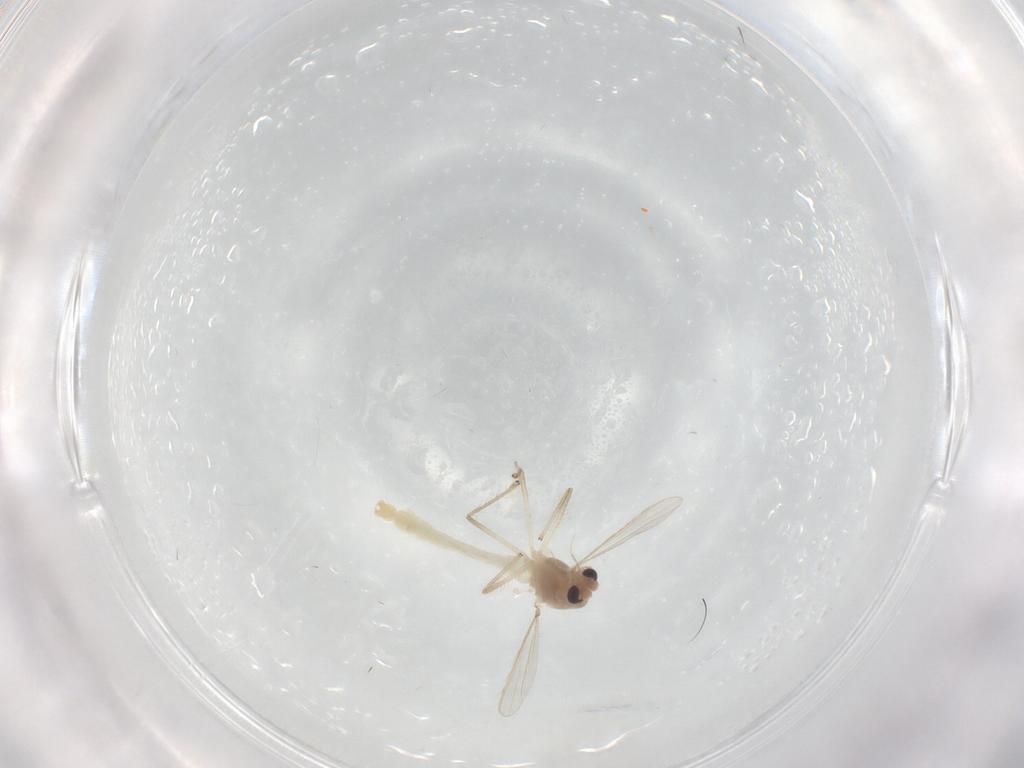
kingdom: Animalia
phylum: Arthropoda
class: Insecta
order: Diptera
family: Chironomidae
